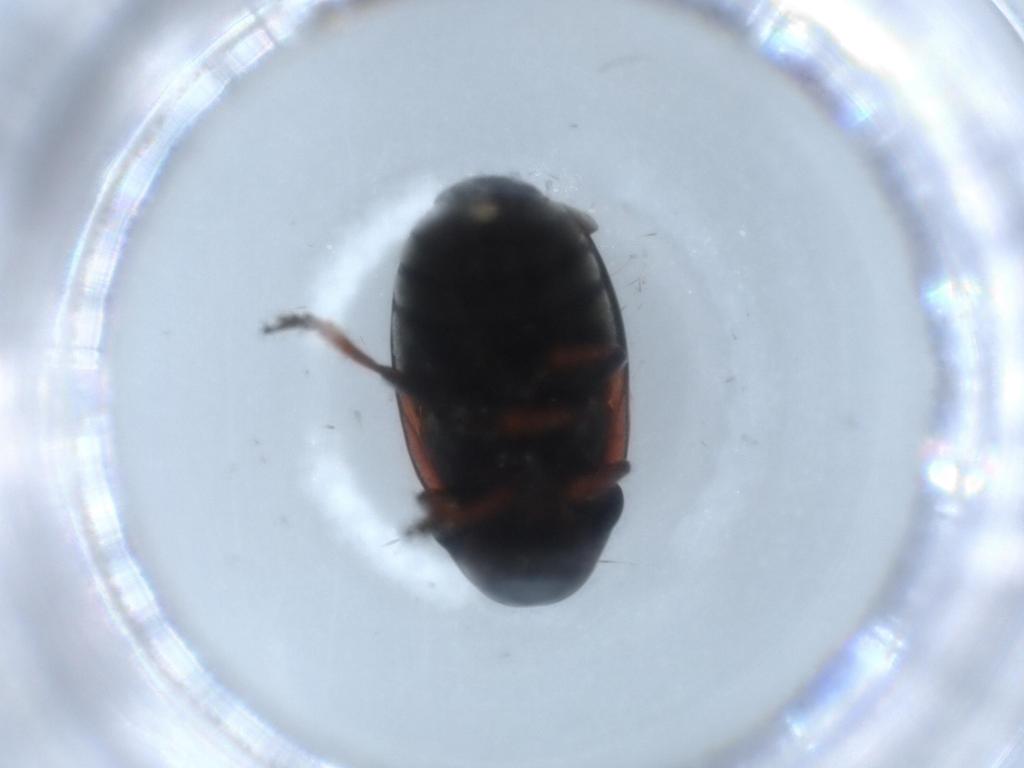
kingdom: Animalia
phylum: Arthropoda
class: Insecta
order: Coleoptera
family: Chrysomelidae
